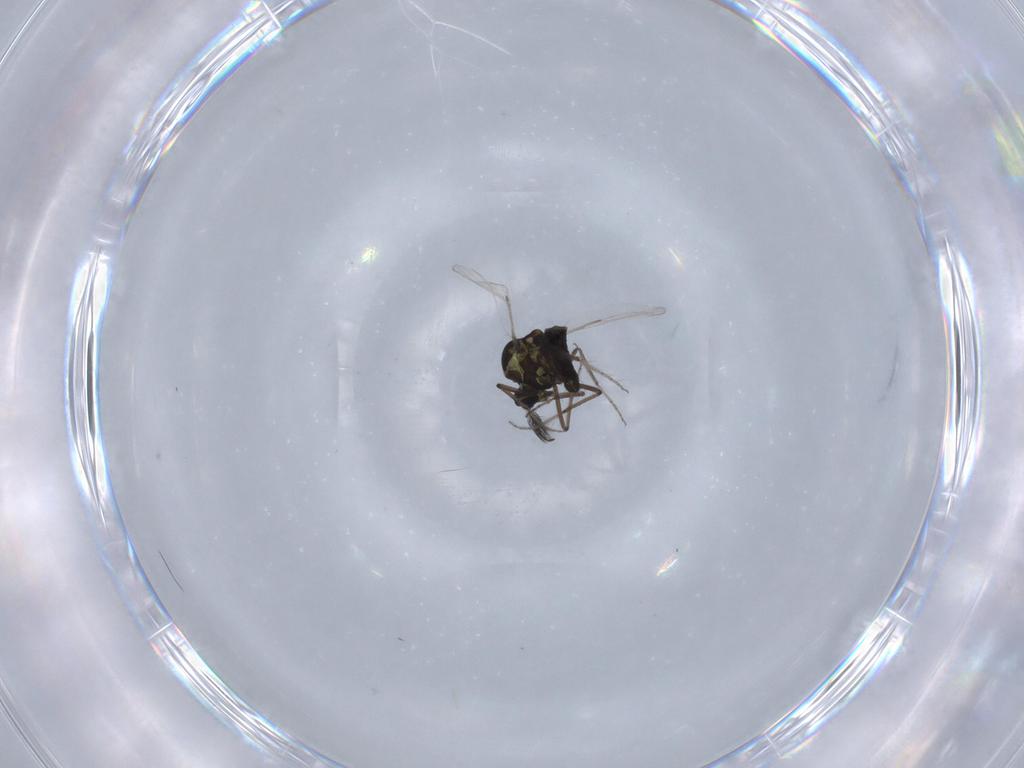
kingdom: Animalia
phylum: Arthropoda
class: Insecta
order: Diptera
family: Ceratopogonidae
